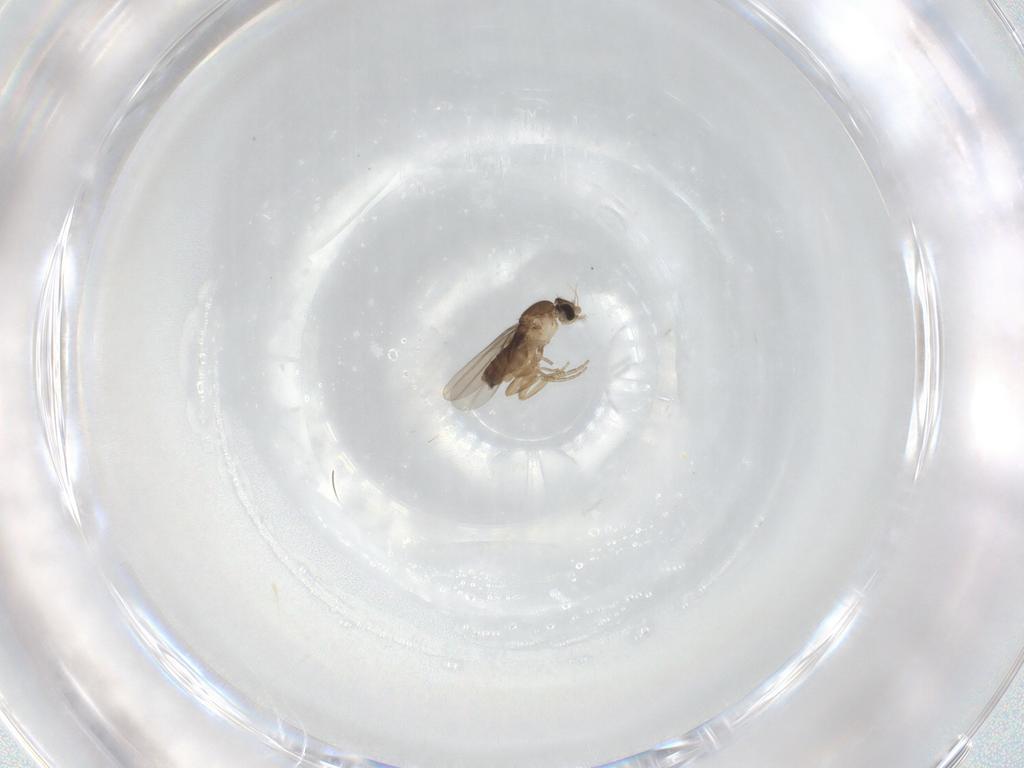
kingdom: Animalia
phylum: Arthropoda
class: Insecta
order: Diptera
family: Phoridae
